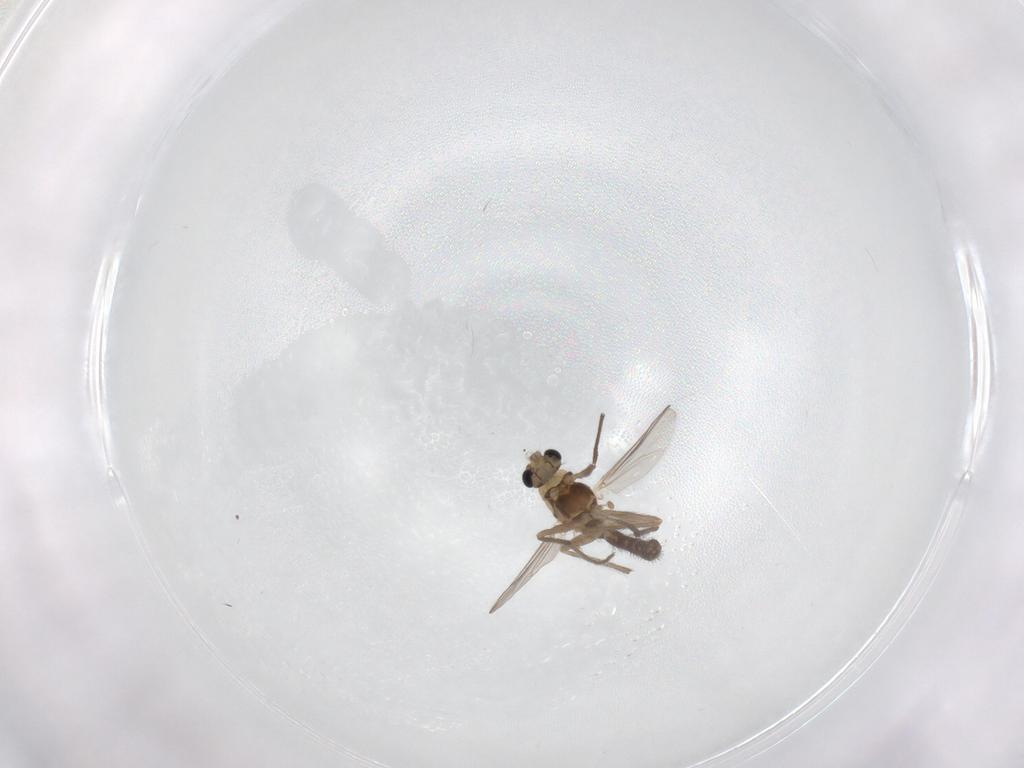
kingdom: Animalia
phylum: Arthropoda
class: Insecta
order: Diptera
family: Chironomidae
